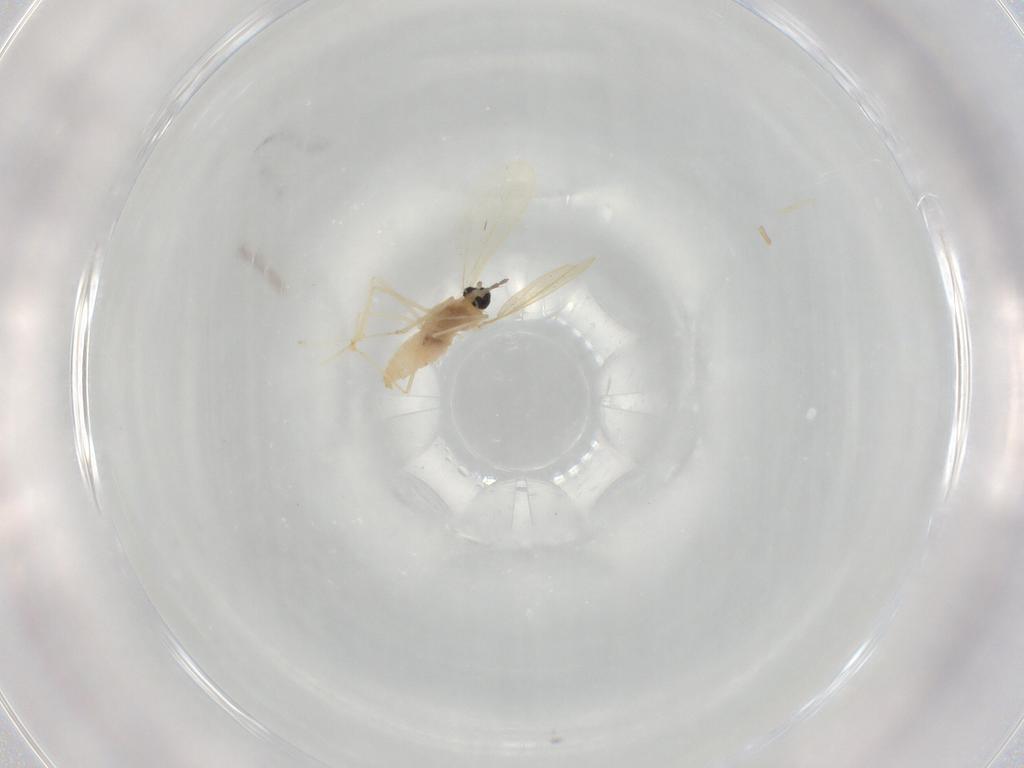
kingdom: Animalia
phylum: Arthropoda
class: Insecta
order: Diptera
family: Cecidomyiidae
